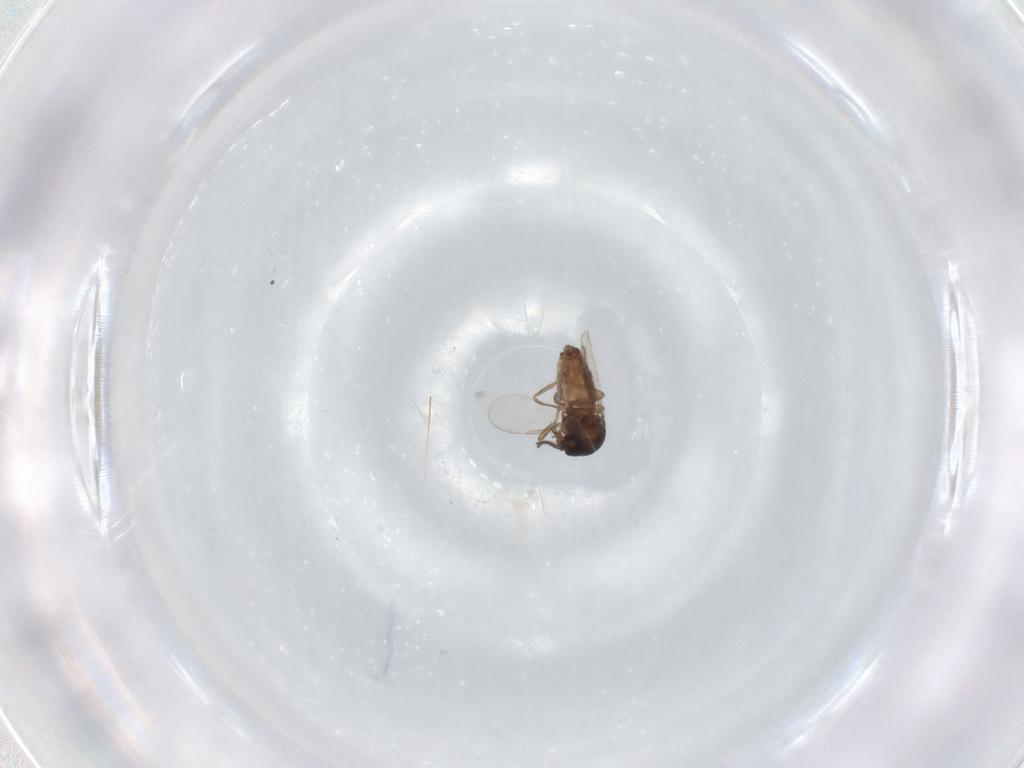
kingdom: Animalia
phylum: Arthropoda
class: Insecta
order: Diptera
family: Ceratopogonidae
